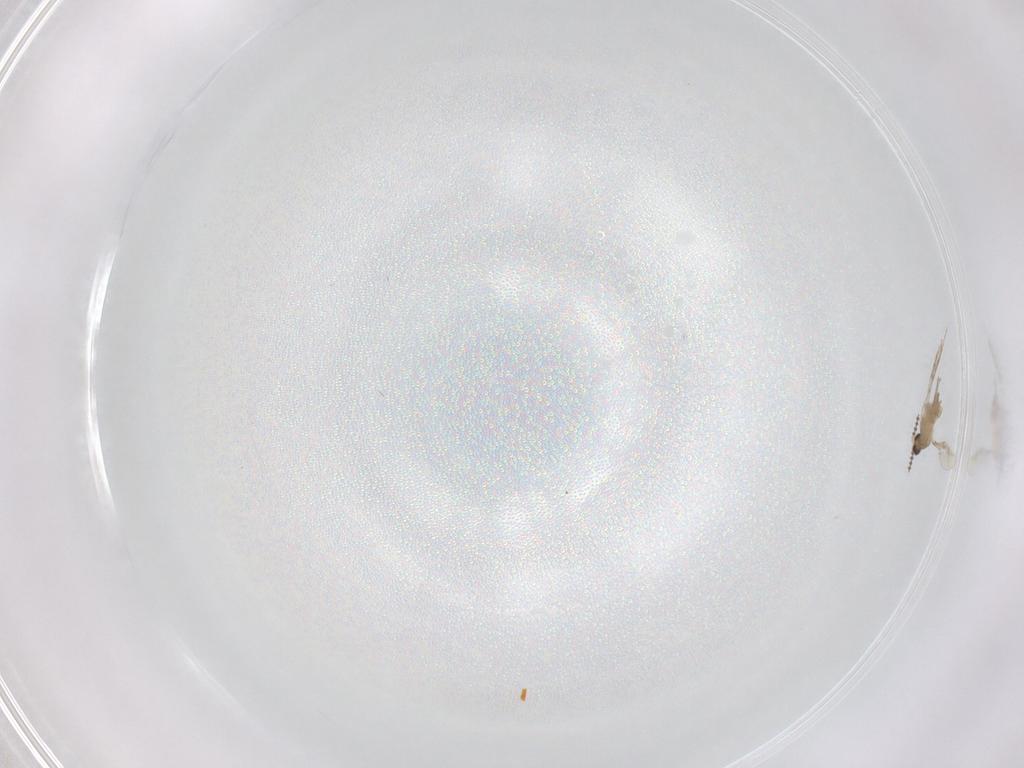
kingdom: Animalia
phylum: Arthropoda
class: Insecta
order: Diptera
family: Cecidomyiidae
